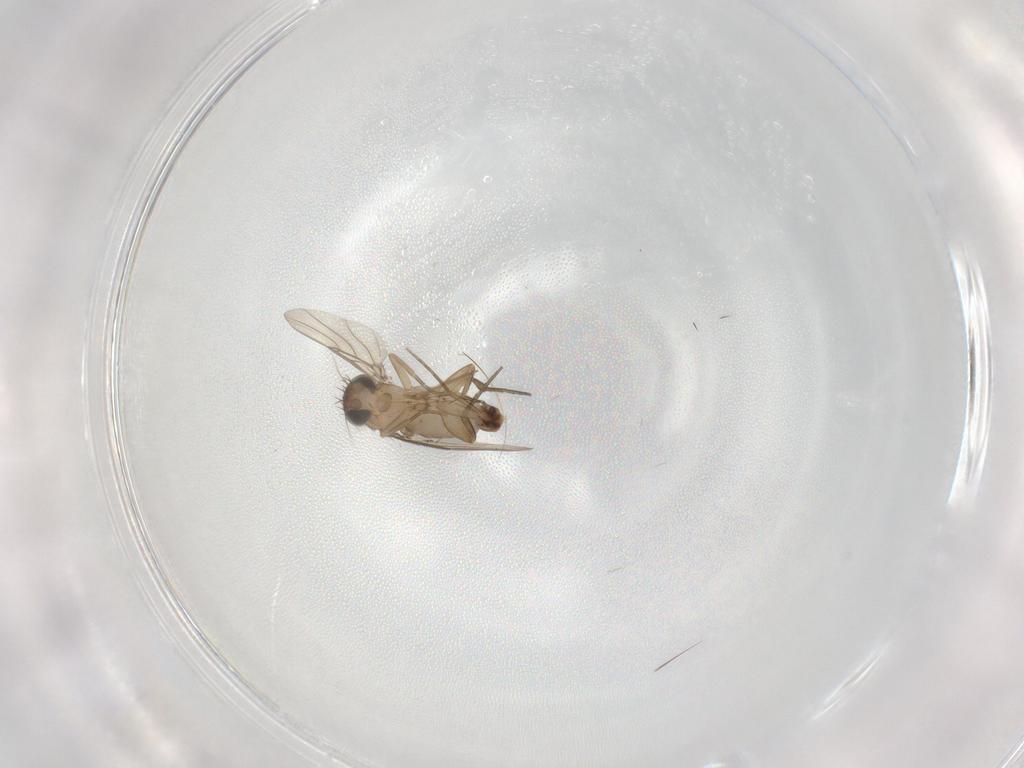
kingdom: Animalia
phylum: Arthropoda
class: Insecta
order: Diptera
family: Phoridae
